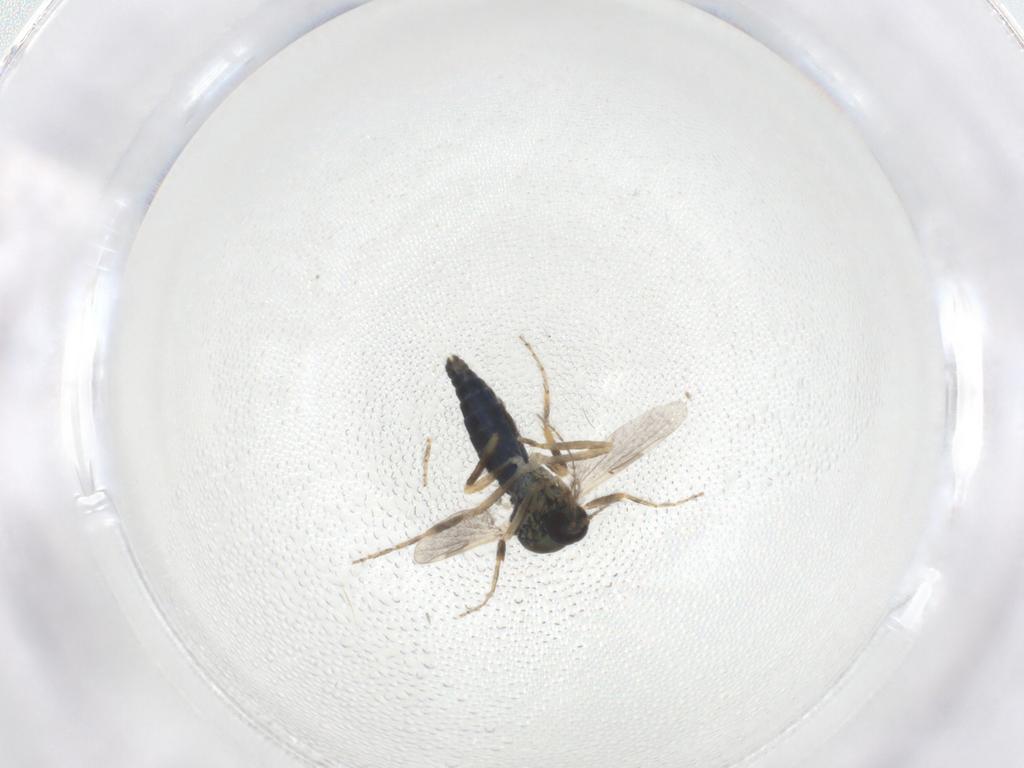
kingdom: Animalia
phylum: Arthropoda
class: Insecta
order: Diptera
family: Ceratopogonidae
